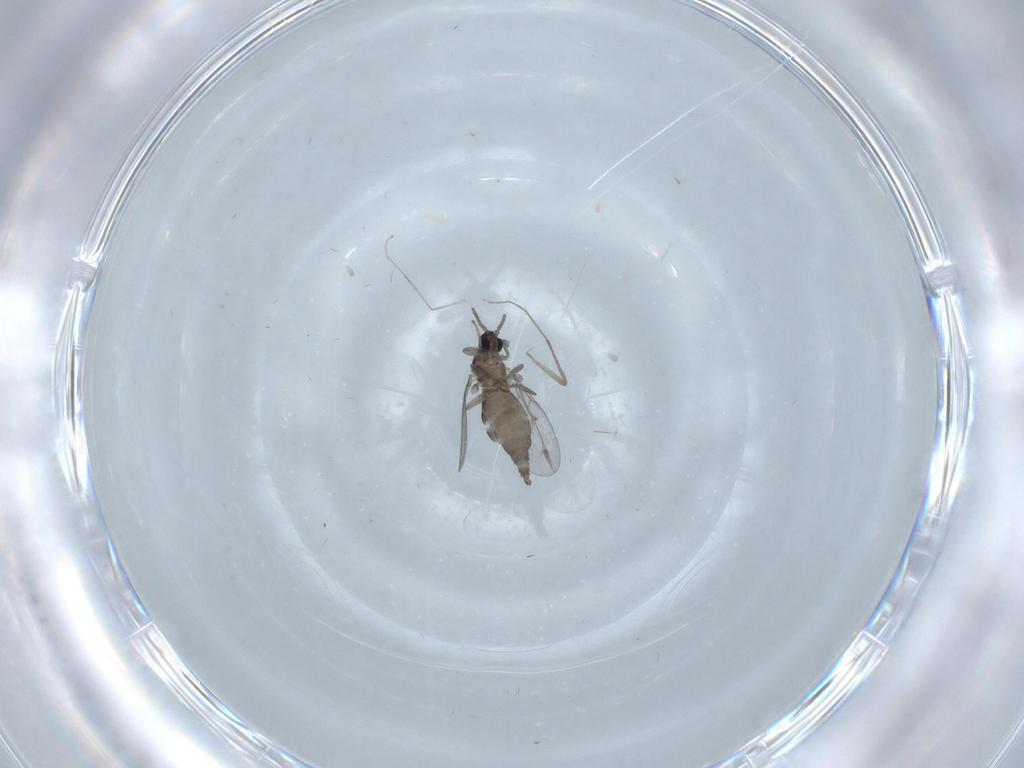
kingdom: Animalia
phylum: Arthropoda
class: Insecta
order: Diptera
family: Cecidomyiidae
